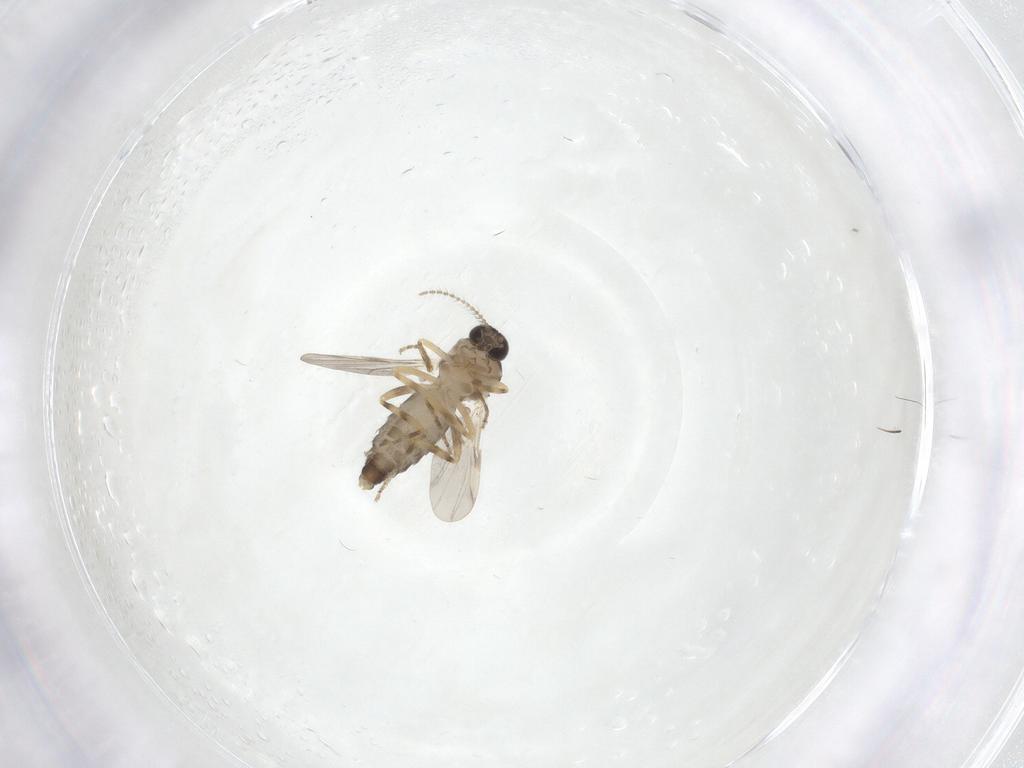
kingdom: Animalia
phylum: Arthropoda
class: Insecta
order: Diptera
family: Ceratopogonidae
